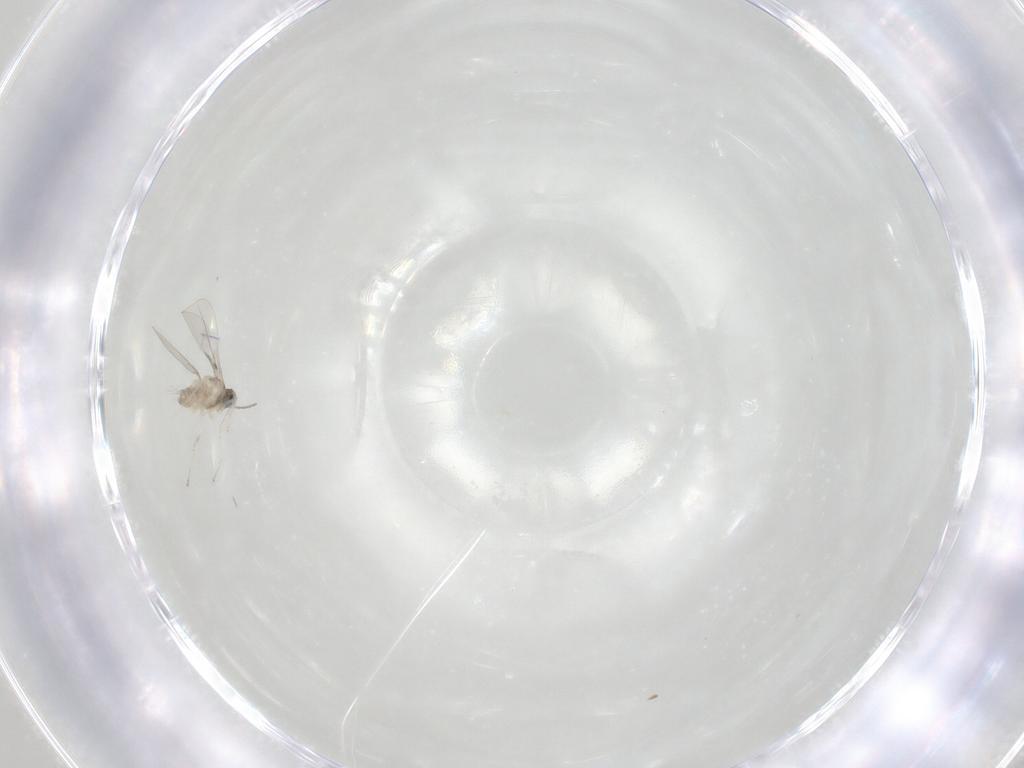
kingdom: Animalia
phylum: Arthropoda
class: Insecta
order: Diptera
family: Cecidomyiidae
